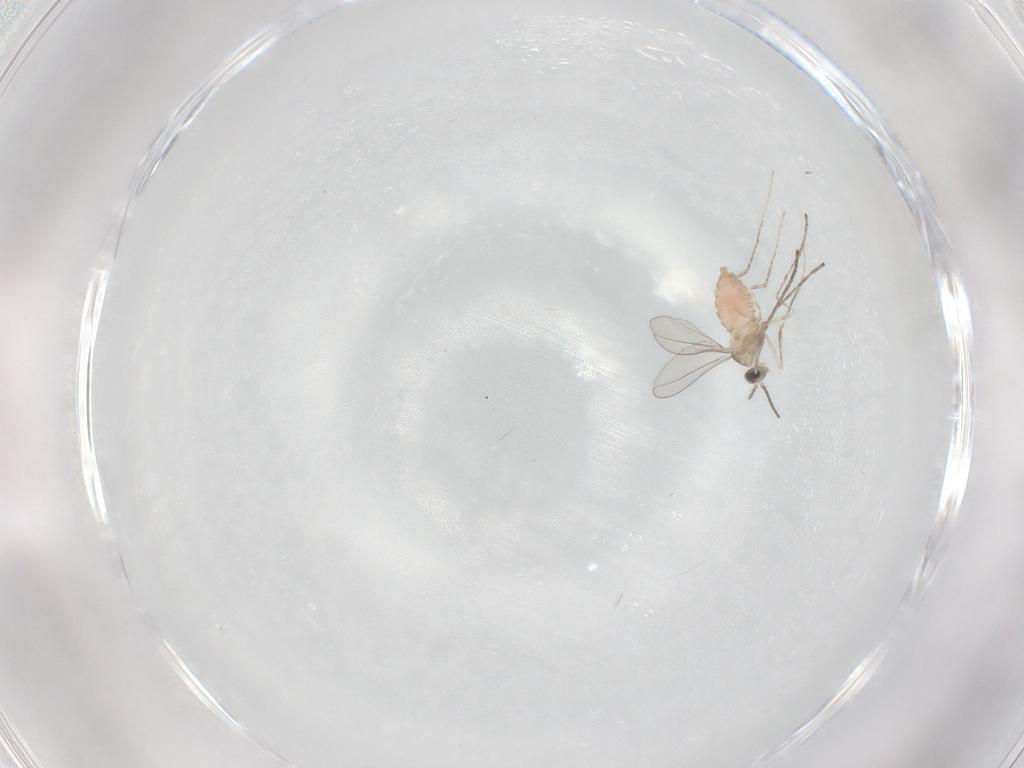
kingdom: Animalia
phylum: Arthropoda
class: Insecta
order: Diptera
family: Cecidomyiidae
